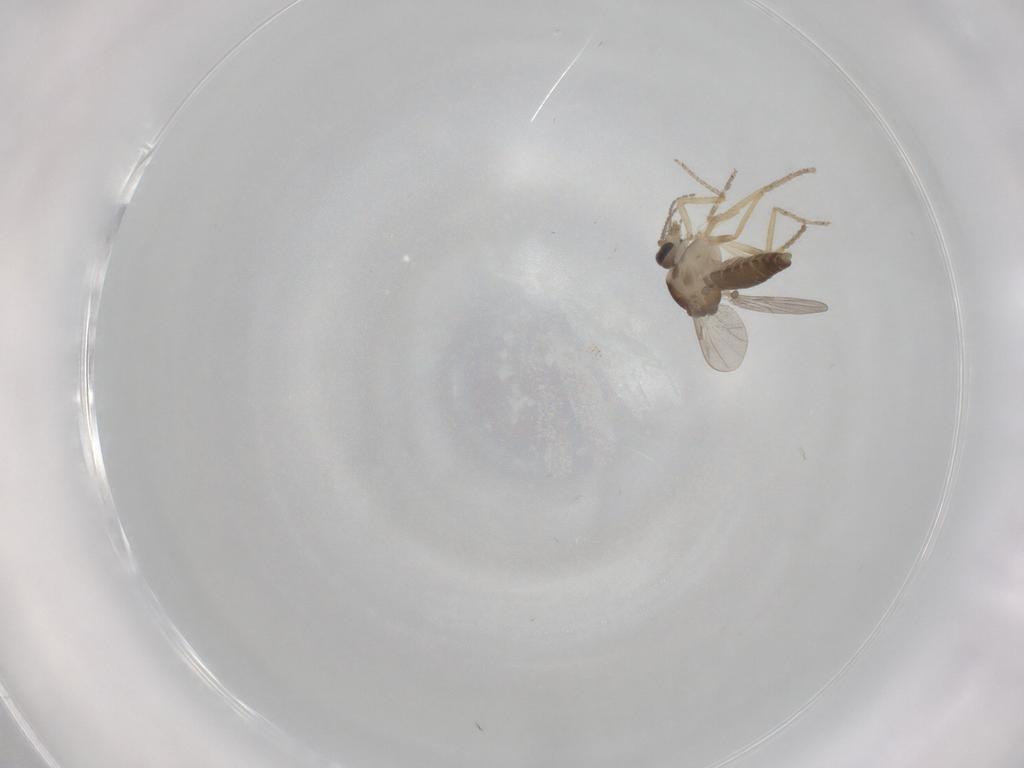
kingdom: Animalia
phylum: Arthropoda
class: Insecta
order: Diptera
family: Ceratopogonidae
